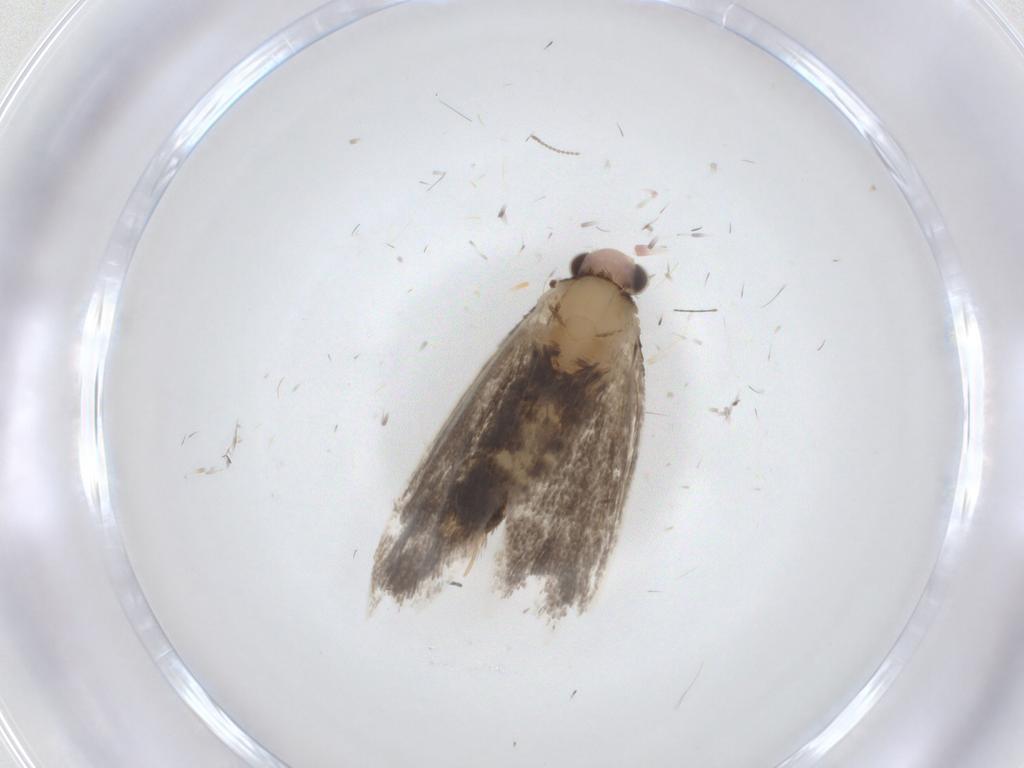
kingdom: Animalia
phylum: Arthropoda
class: Insecta
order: Lepidoptera
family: Tineidae
